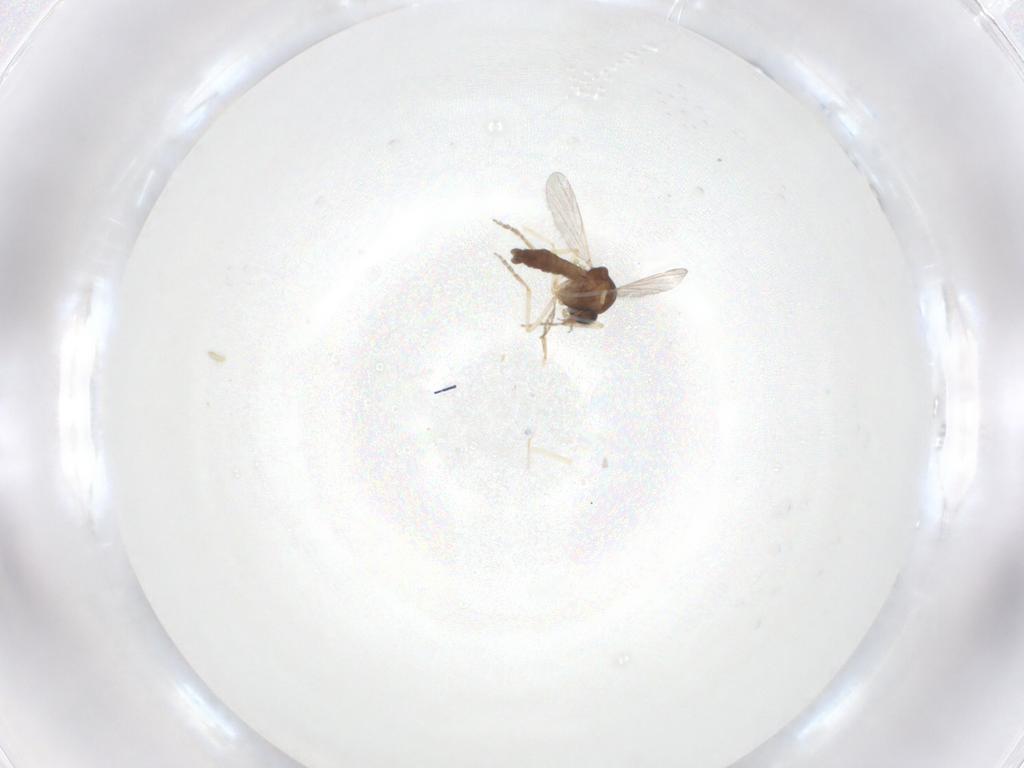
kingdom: Animalia
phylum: Arthropoda
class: Insecta
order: Diptera
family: Ceratopogonidae
